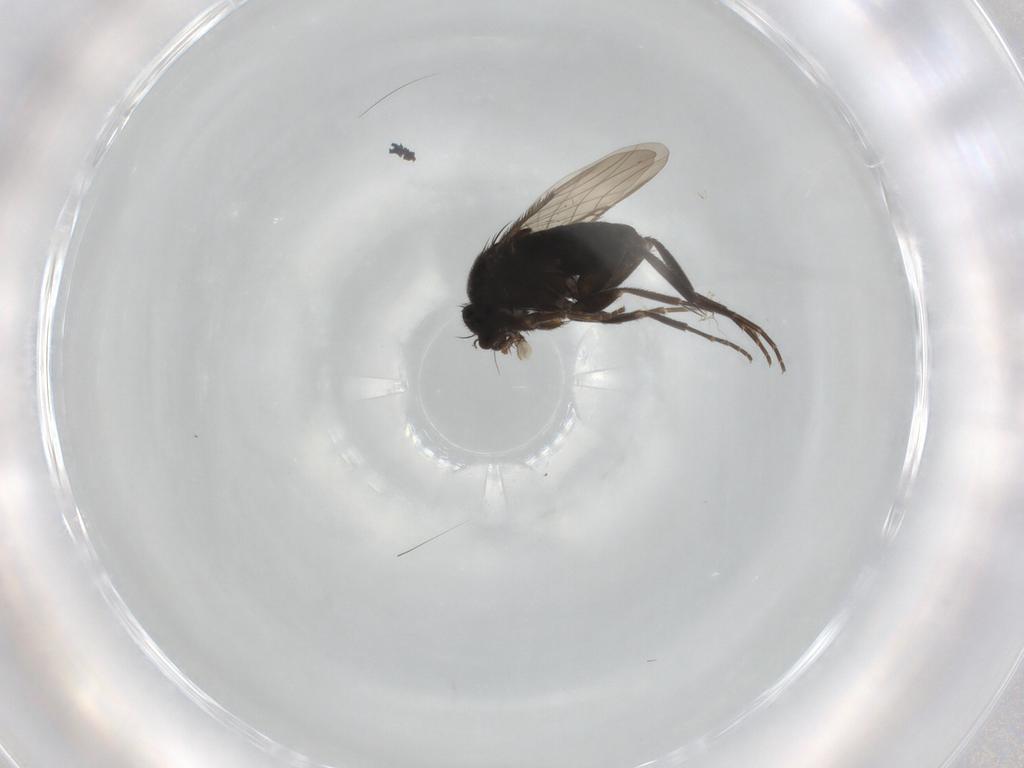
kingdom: Animalia
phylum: Arthropoda
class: Insecta
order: Diptera
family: Chironomidae
